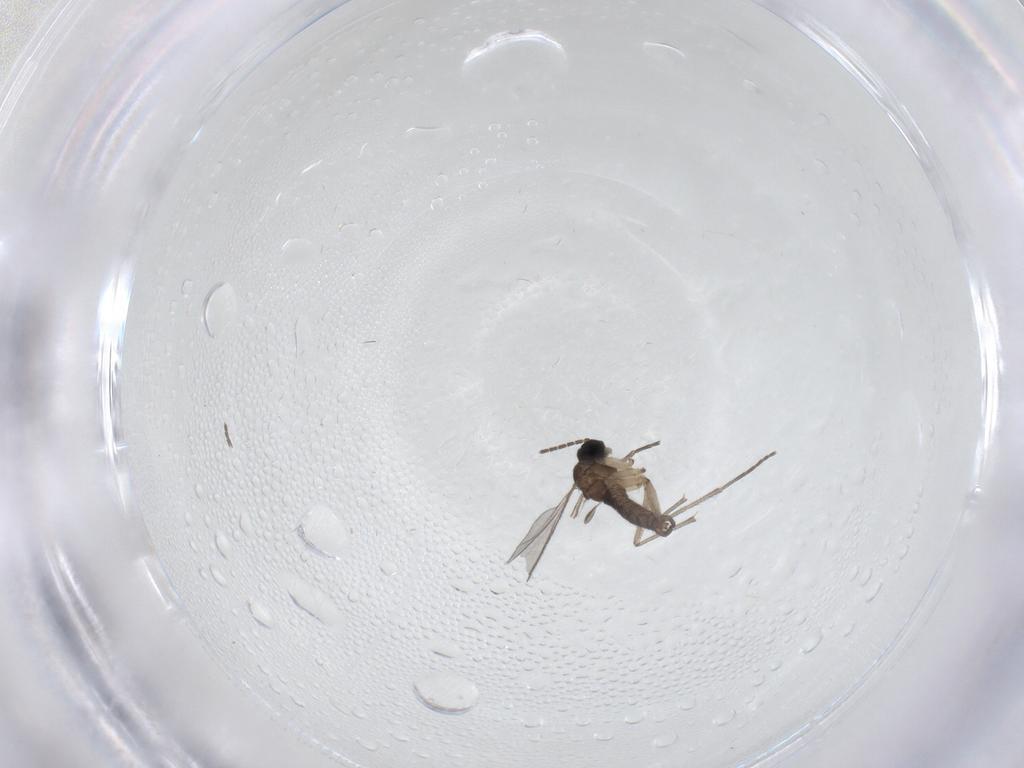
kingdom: Animalia
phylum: Arthropoda
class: Insecta
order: Diptera
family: Sciaridae
